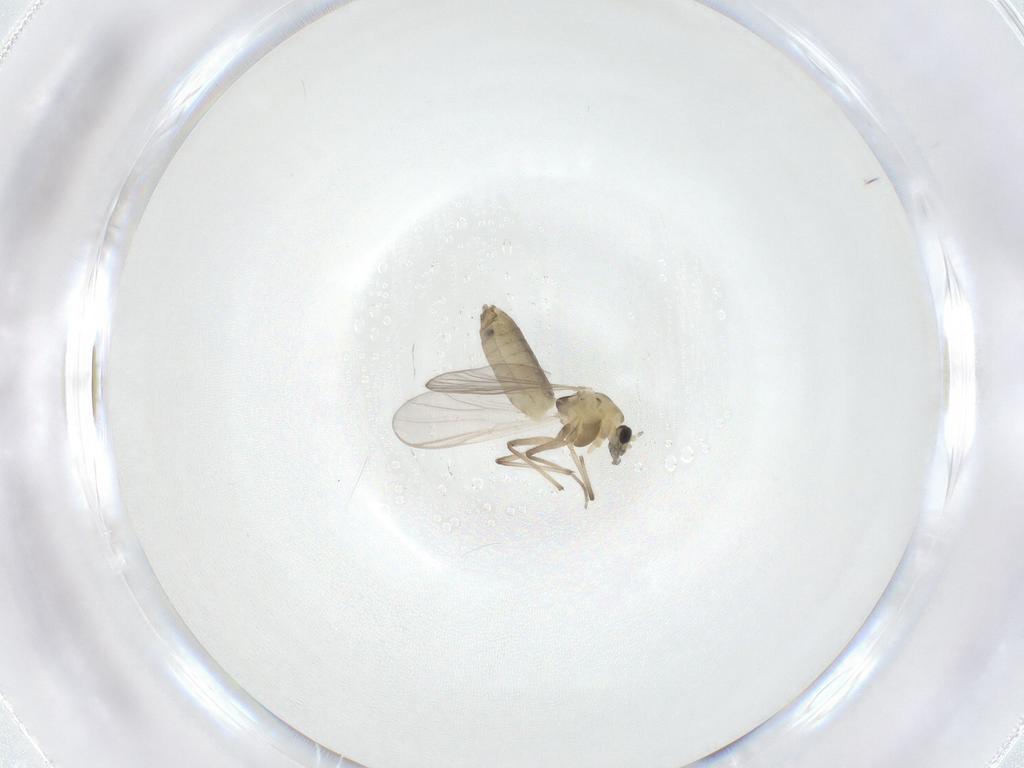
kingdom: Animalia
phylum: Arthropoda
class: Insecta
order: Diptera
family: Chironomidae
